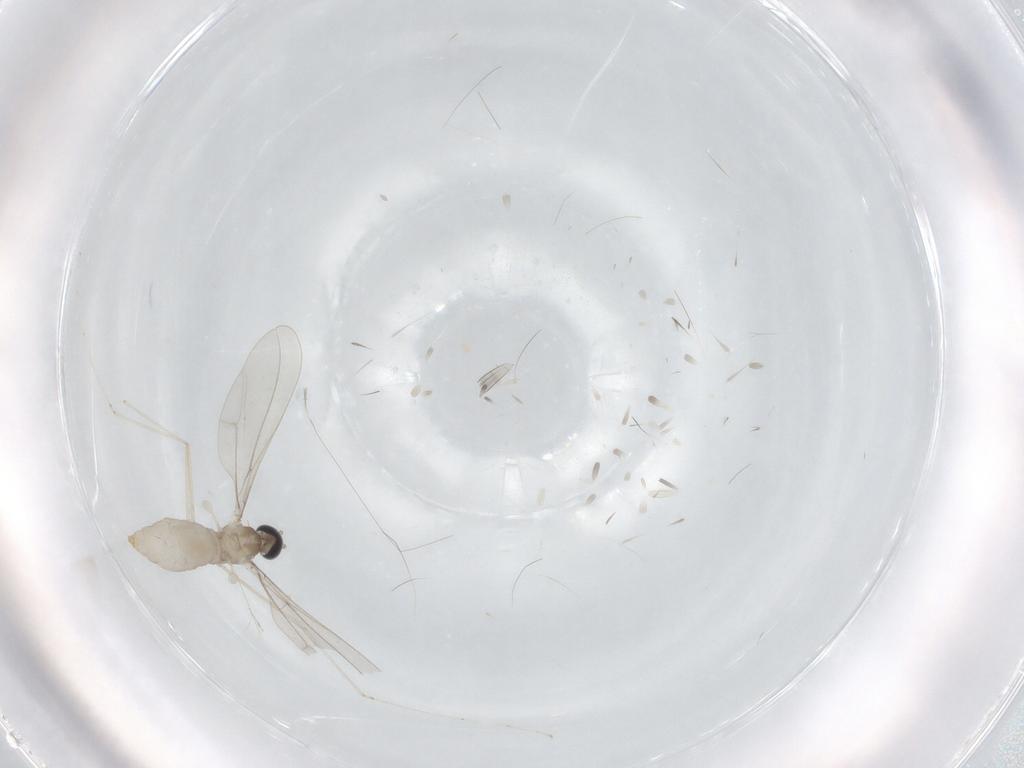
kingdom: Animalia
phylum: Arthropoda
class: Insecta
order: Diptera
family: Cecidomyiidae
